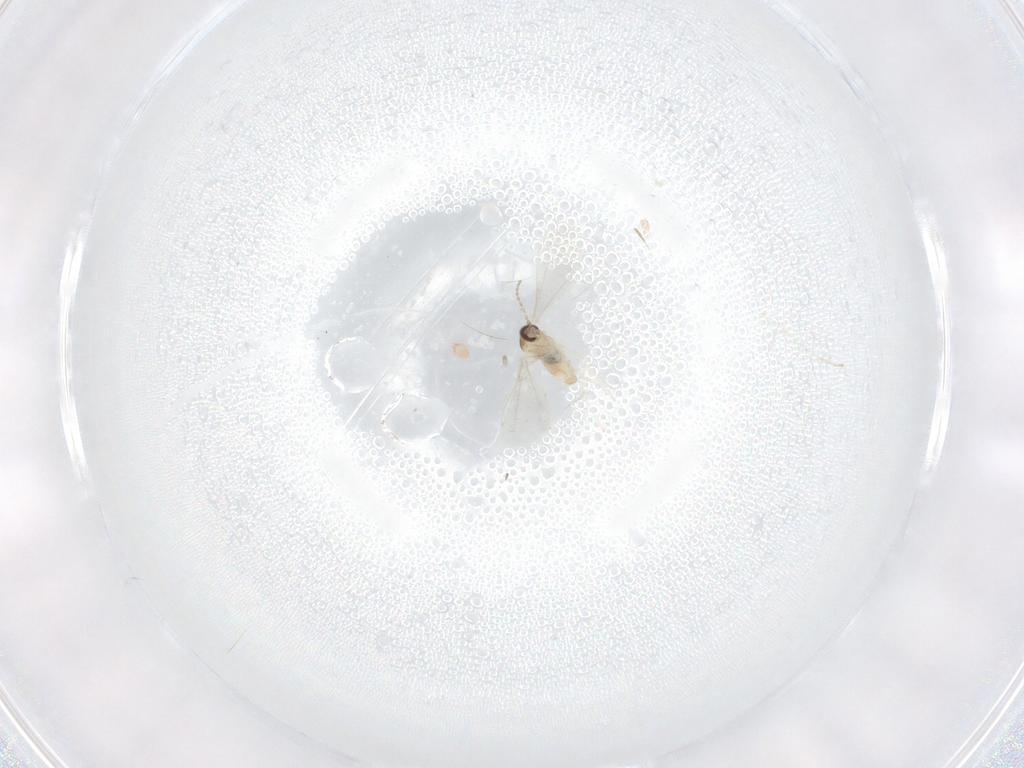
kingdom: Animalia
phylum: Arthropoda
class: Insecta
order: Diptera
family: Cecidomyiidae
